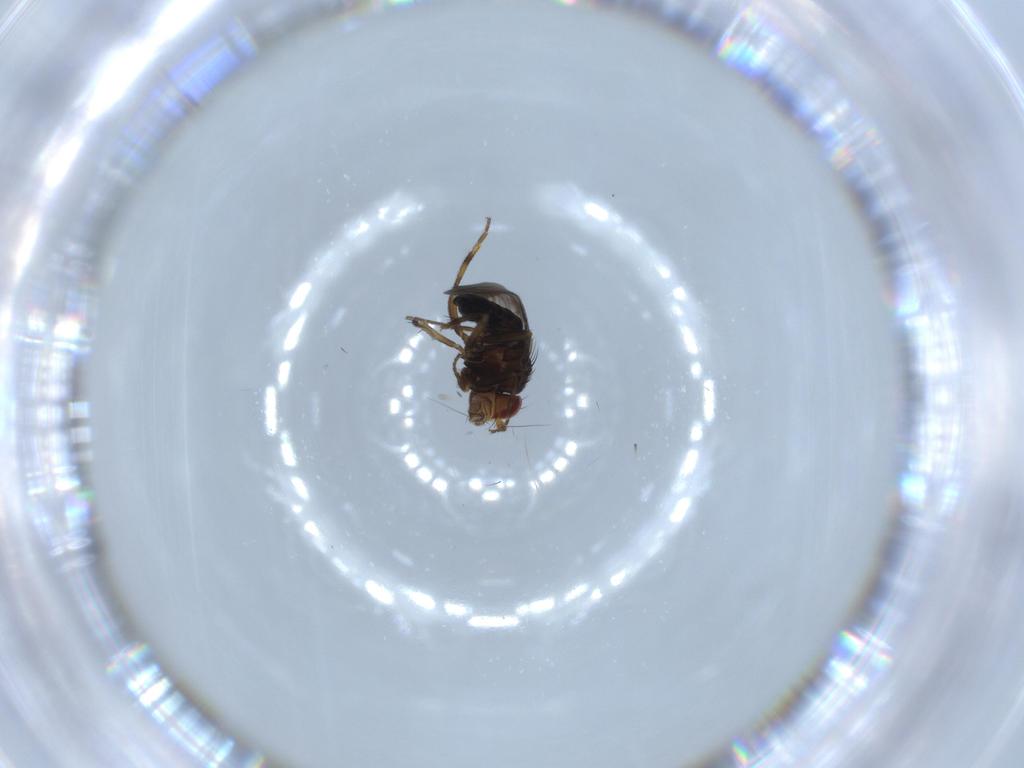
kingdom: Animalia
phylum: Arthropoda
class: Insecta
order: Diptera
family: Sphaeroceridae
